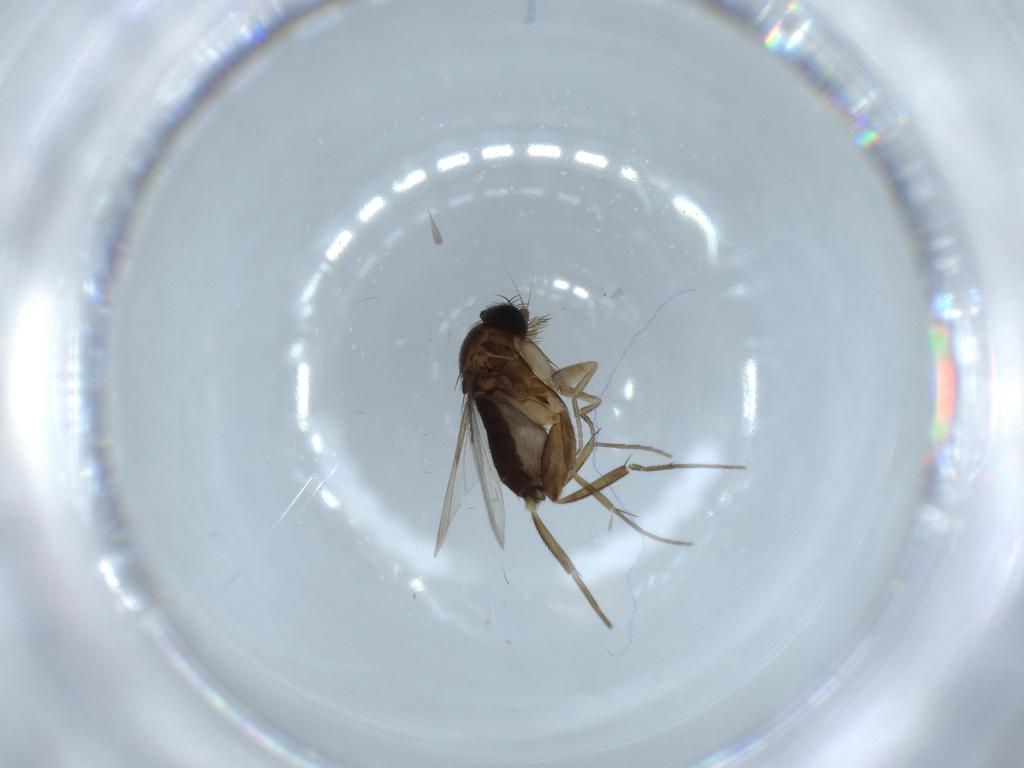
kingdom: Animalia
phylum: Arthropoda
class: Insecta
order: Diptera
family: Phoridae
